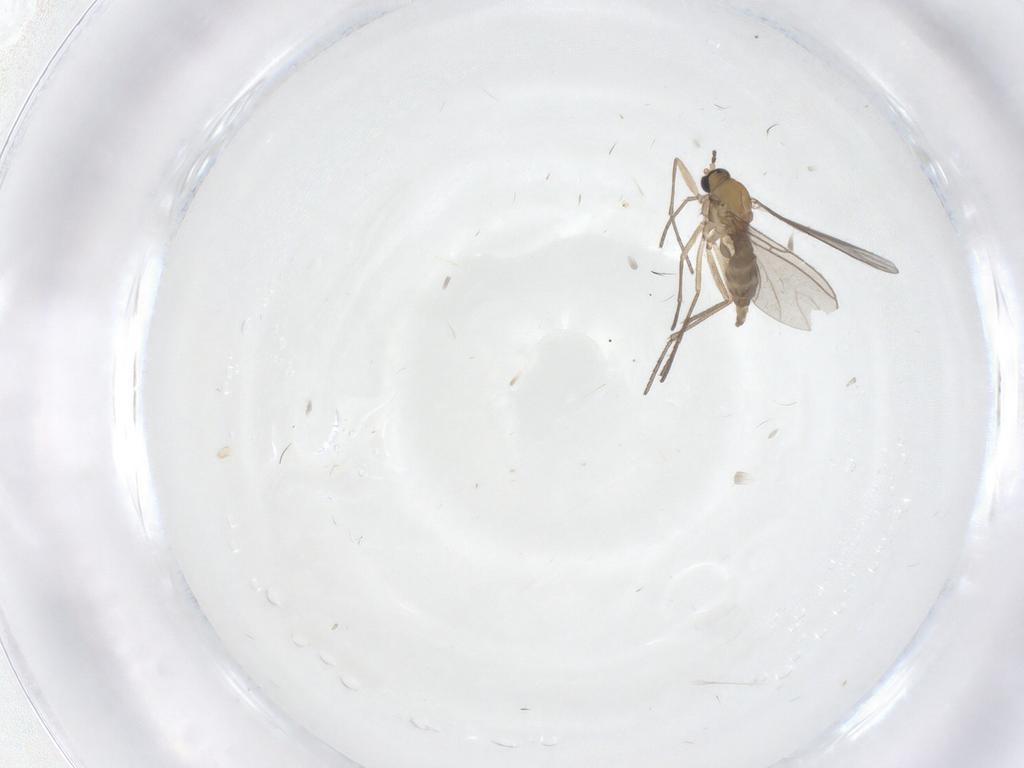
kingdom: Animalia
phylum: Arthropoda
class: Insecta
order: Diptera
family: Sciaridae
